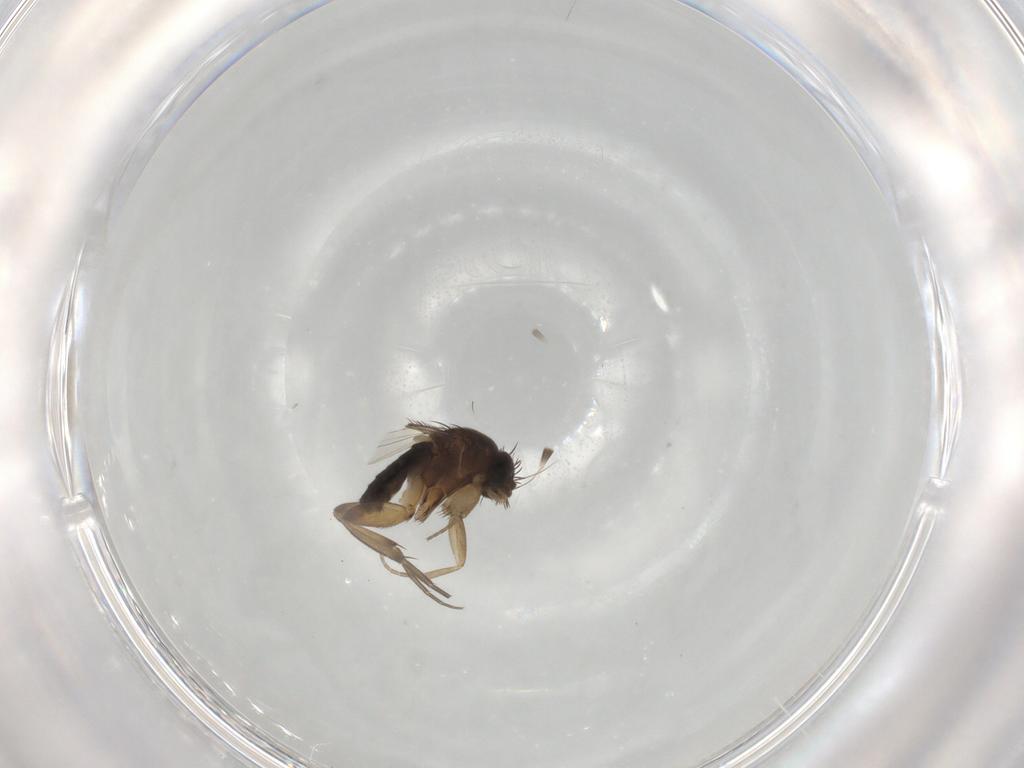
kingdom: Animalia
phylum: Arthropoda
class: Insecta
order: Diptera
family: Phoridae
